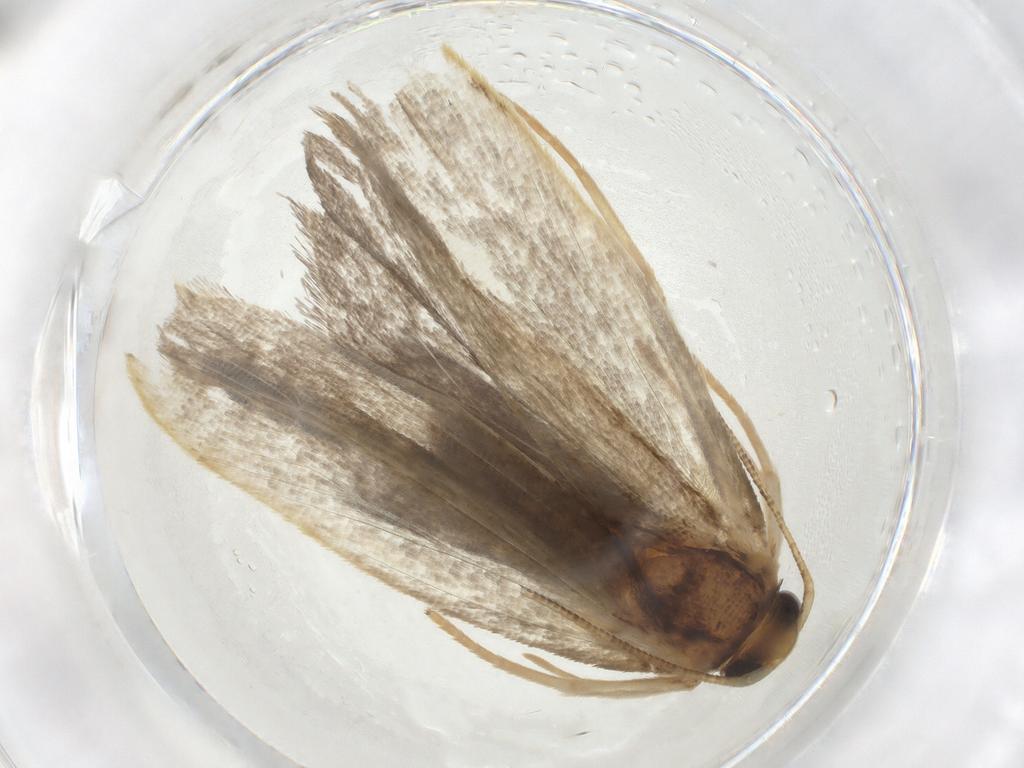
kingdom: Animalia
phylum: Arthropoda
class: Insecta
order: Lepidoptera
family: Depressariidae
